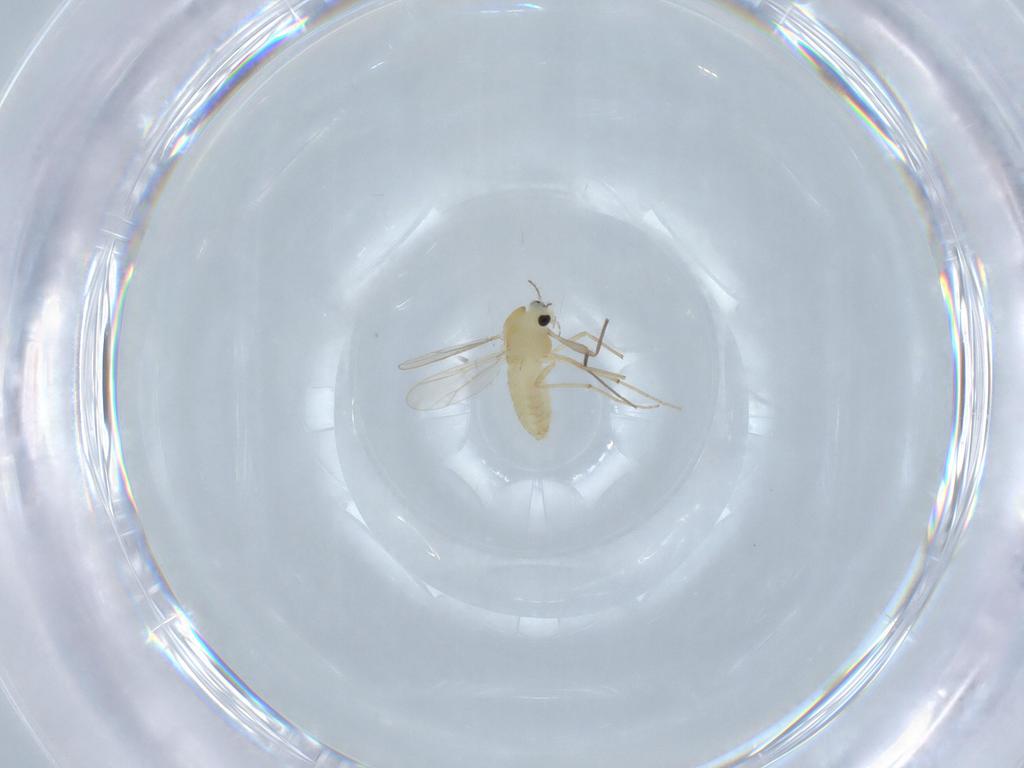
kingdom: Animalia
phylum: Arthropoda
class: Insecta
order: Diptera
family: Chironomidae
